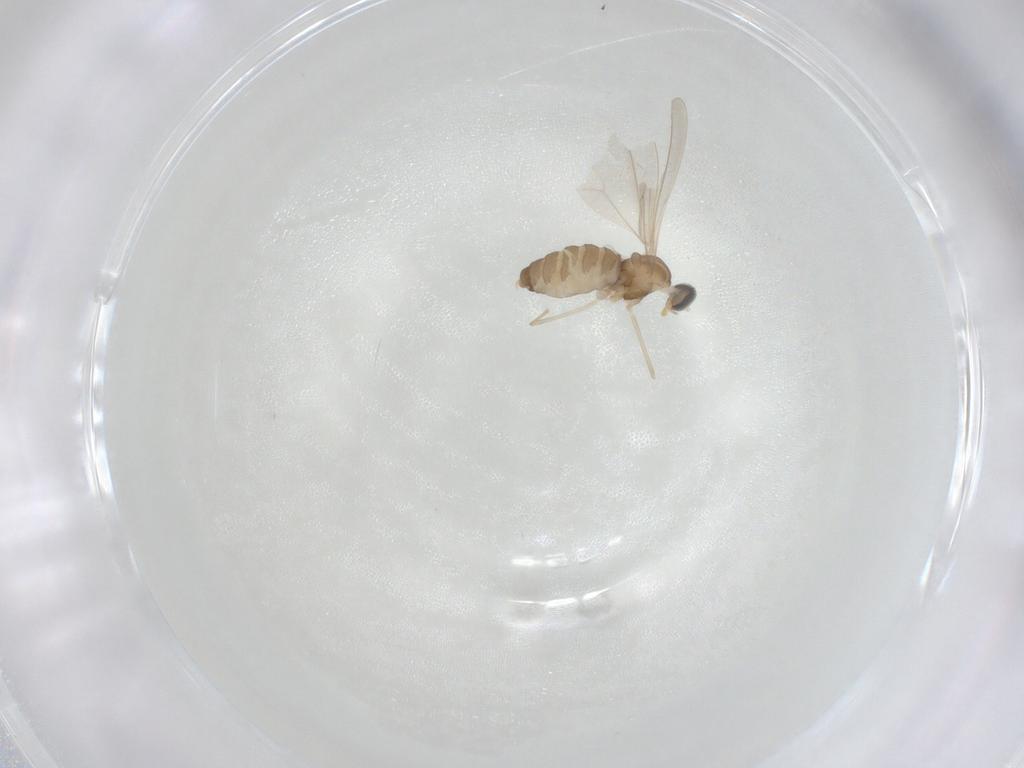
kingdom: Animalia
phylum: Arthropoda
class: Insecta
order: Diptera
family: Cecidomyiidae
